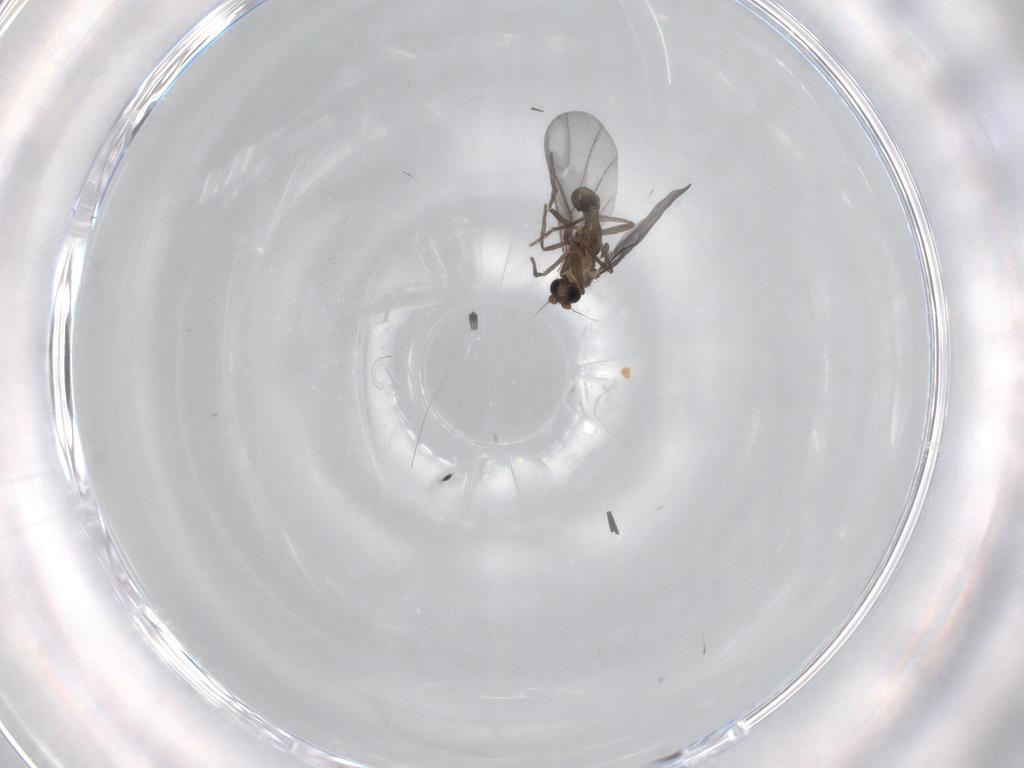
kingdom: Animalia
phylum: Arthropoda
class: Insecta
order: Diptera
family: Phoridae
